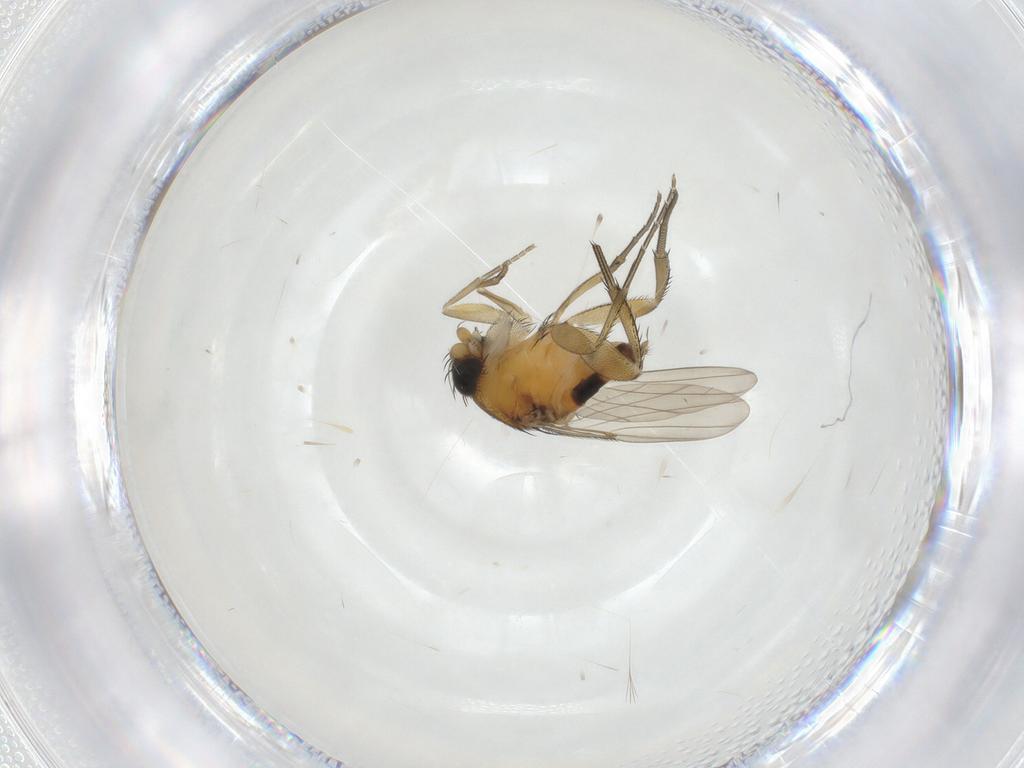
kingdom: Animalia
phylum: Arthropoda
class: Insecta
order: Diptera
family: Phoridae
